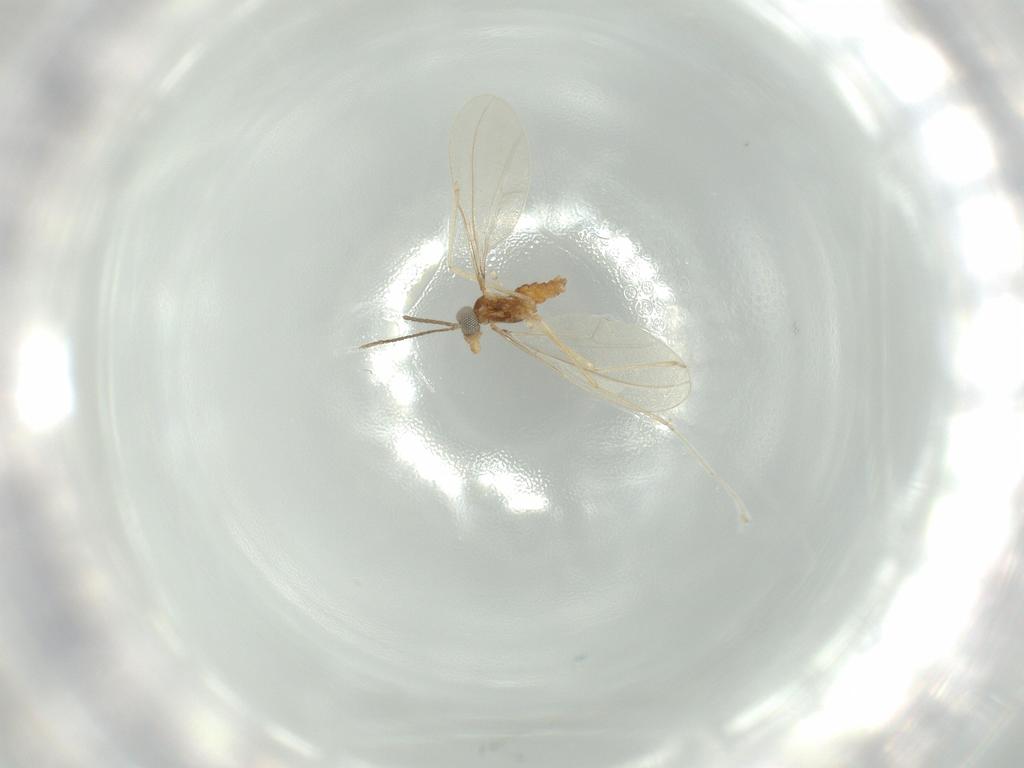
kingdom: Animalia
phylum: Arthropoda
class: Insecta
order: Diptera
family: Cecidomyiidae
